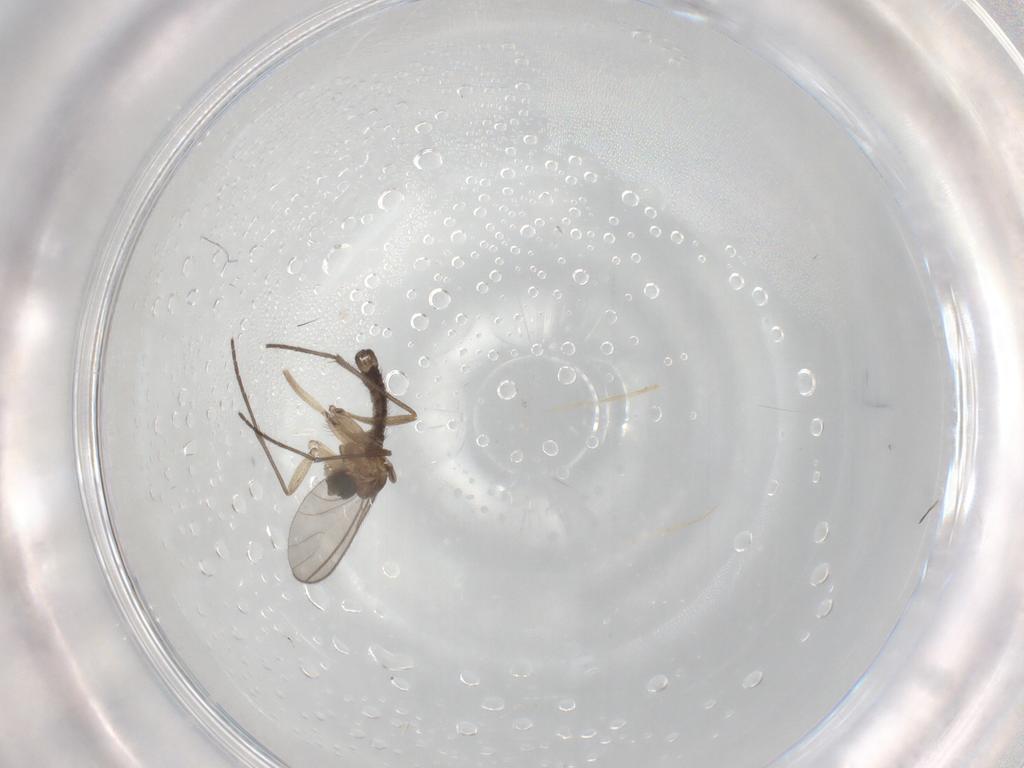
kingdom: Animalia
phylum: Arthropoda
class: Insecta
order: Diptera
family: Sciaridae
